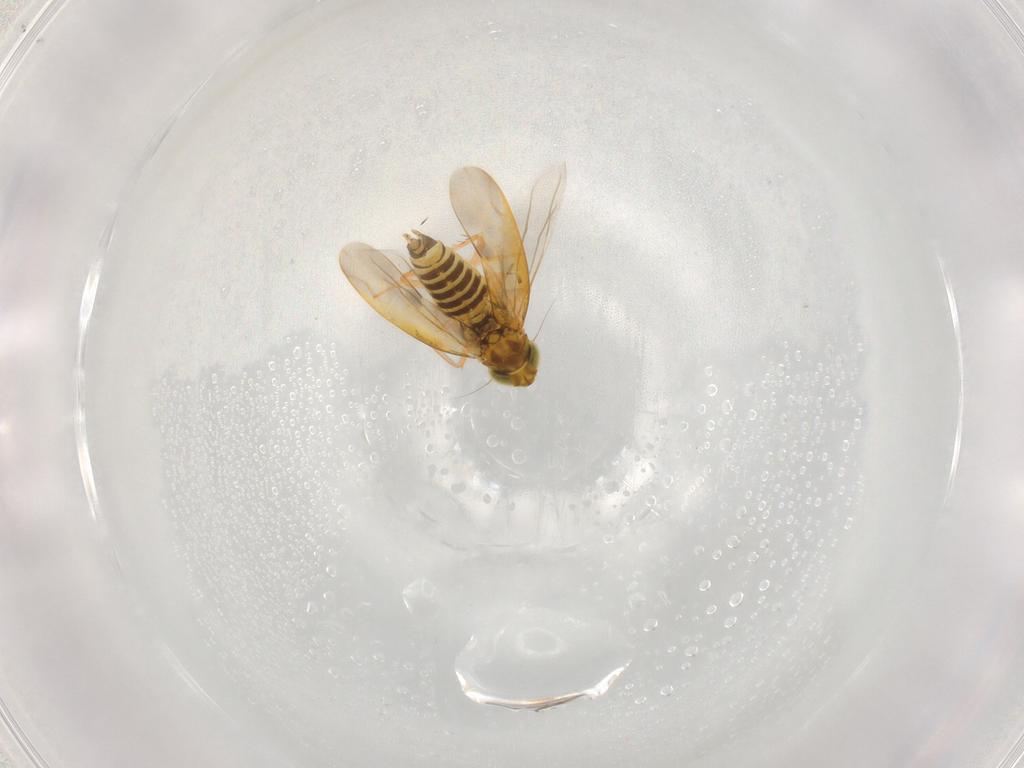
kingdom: Animalia
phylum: Arthropoda
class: Insecta
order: Hemiptera
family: Cicadellidae
